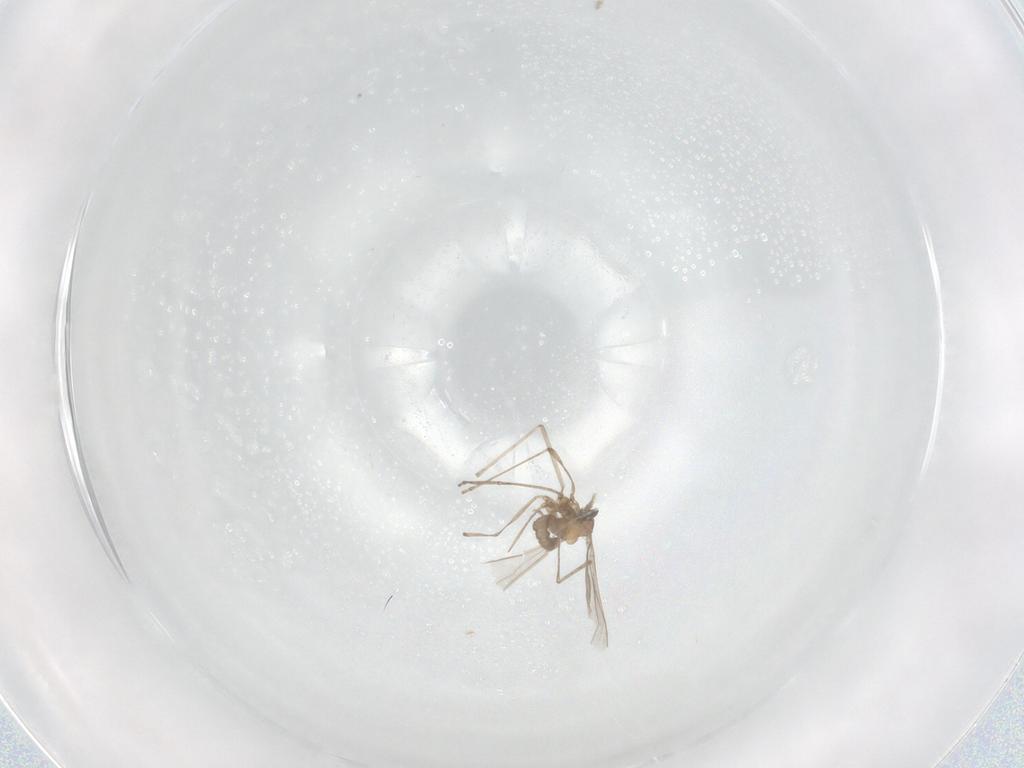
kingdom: Animalia
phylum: Arthropoda
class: Insecta
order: Diptera
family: Cecidomyiidae
